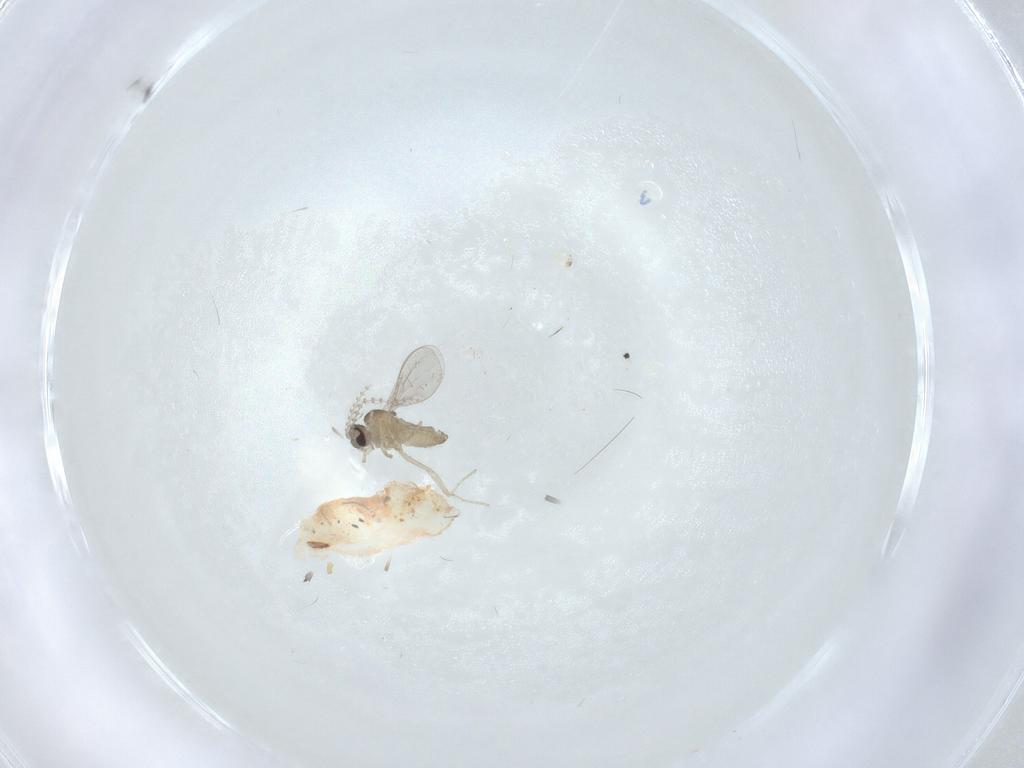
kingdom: Animalia
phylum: Arthropoda
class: Insecta
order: Diptera
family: Cecidomyiidae
